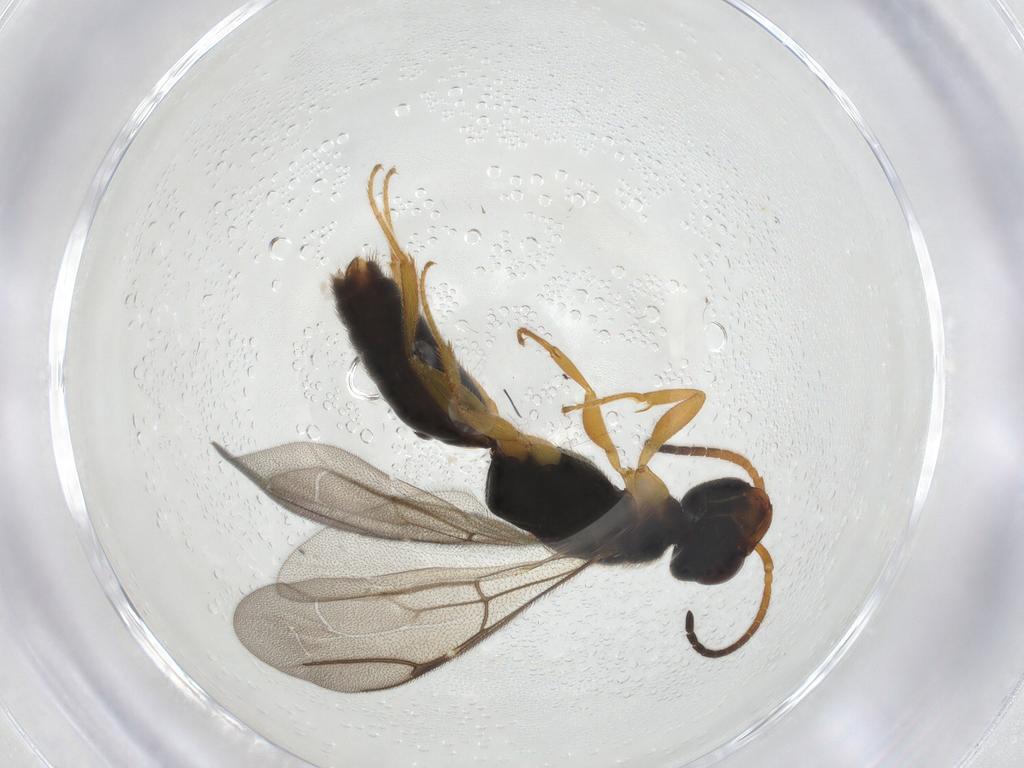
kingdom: Animalia
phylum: Arthropoda
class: Insecta
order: Hymenoptera
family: Bethylidae
